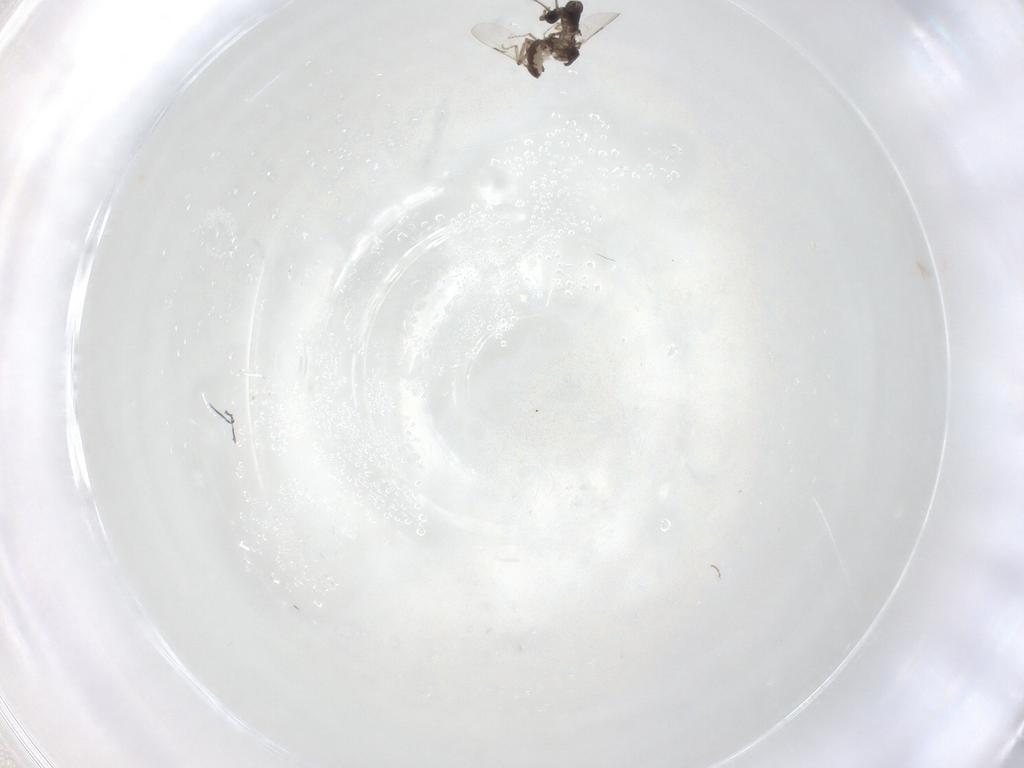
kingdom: Animalia
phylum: Arthropoda
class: Insecta
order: Diptera
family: Ceratopogonidae
